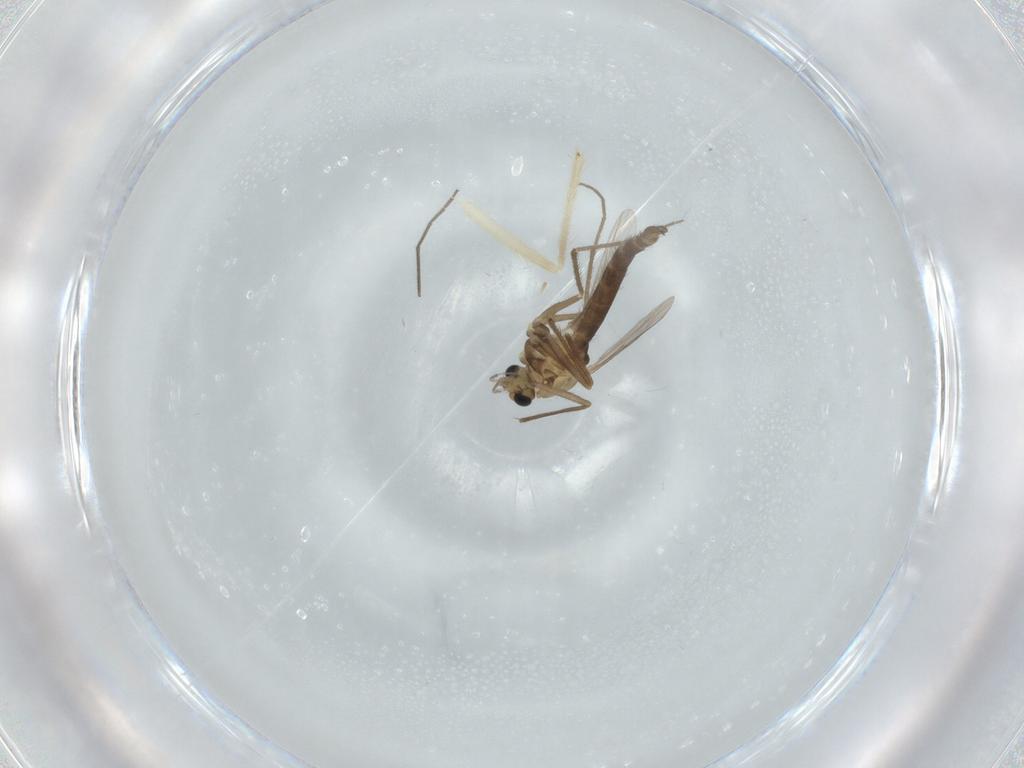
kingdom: Animalia
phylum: Arthropoda
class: Insecta
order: Diptera
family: Chironomidae
